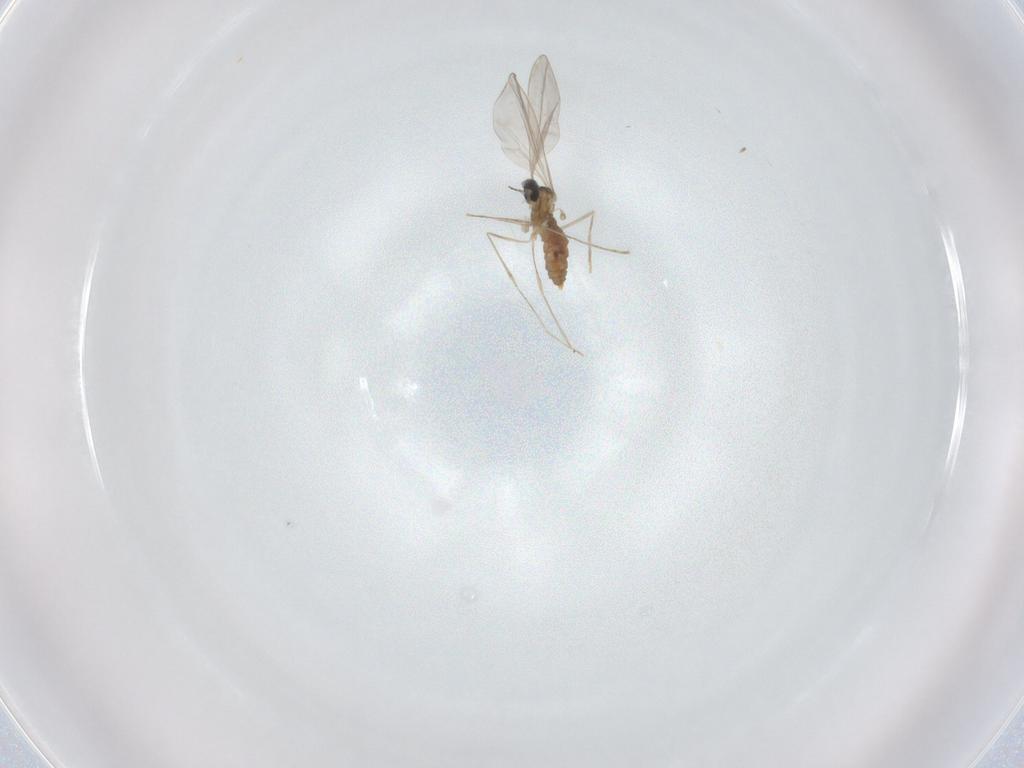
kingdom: Animalia
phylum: Arthropoda
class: Insecta
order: Diptera
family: Cecidomyiidae
